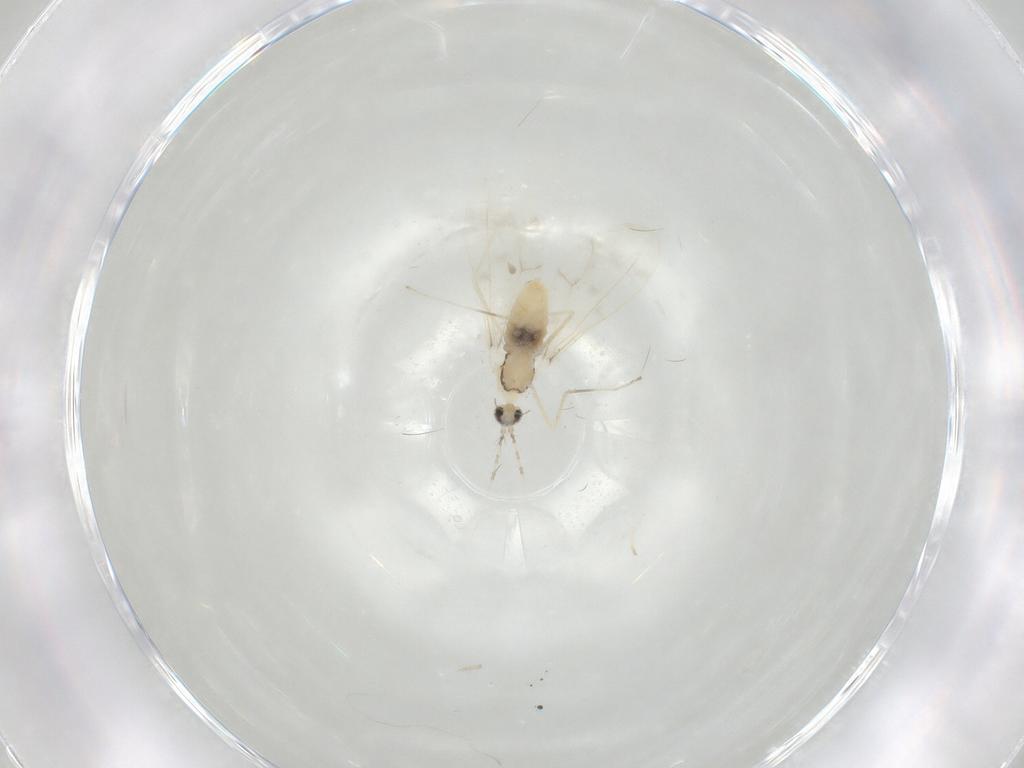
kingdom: Animalia
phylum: Arthropoda
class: Insecta
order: Diptera
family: Cecidomyiidae
